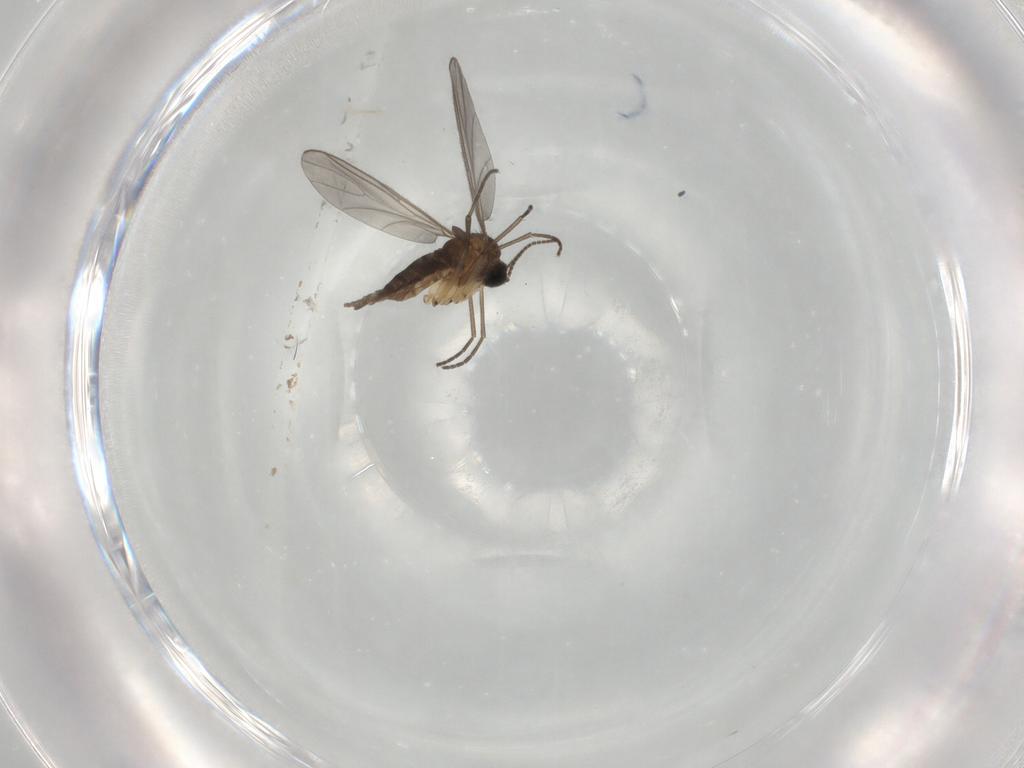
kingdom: Animalia
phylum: Arthropoda
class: Insecta
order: Diptera
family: Sciaridae
